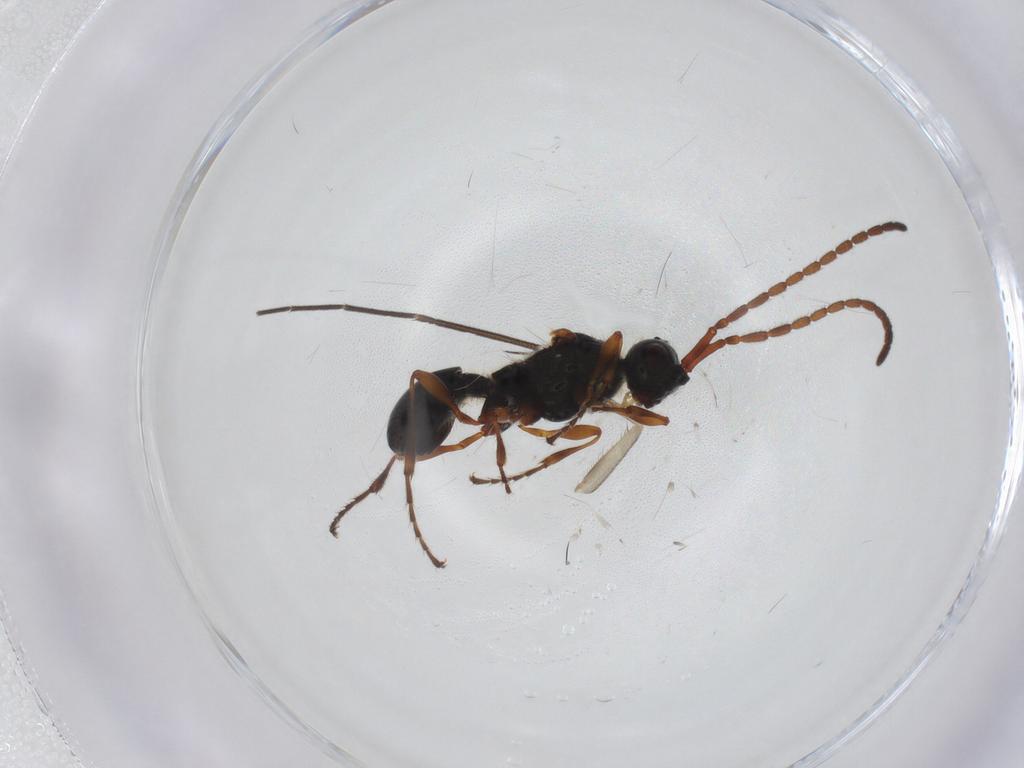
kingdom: Animalia
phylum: Arthropoda
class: Insecta
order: Hymenoptera
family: Diapriidae
